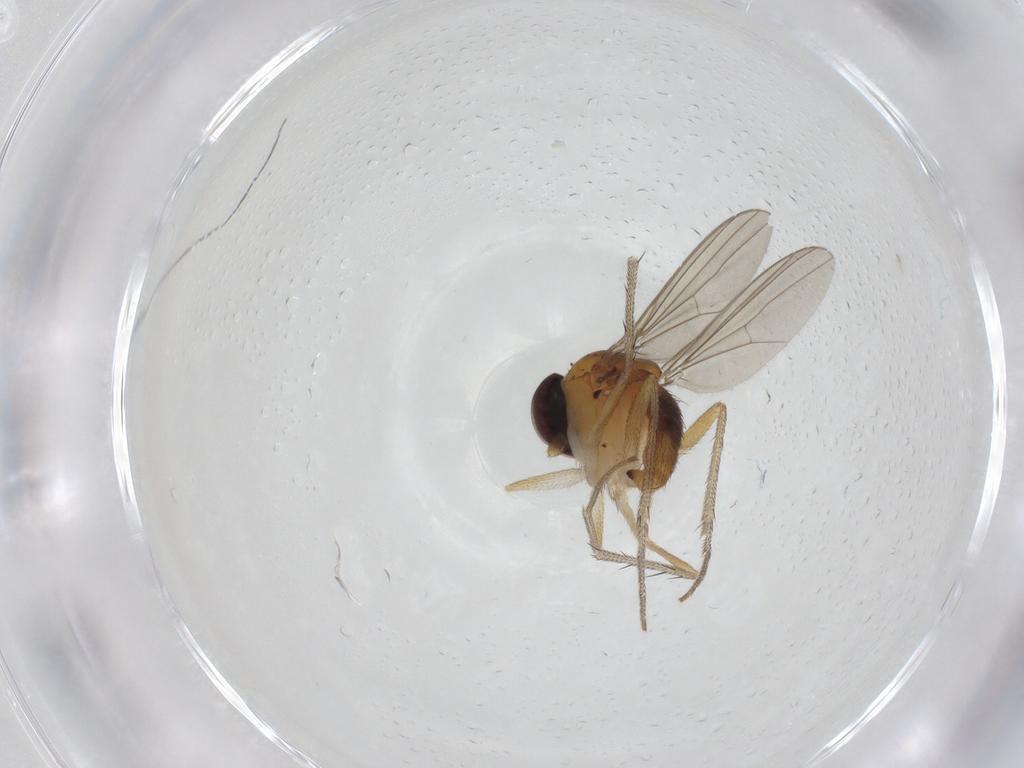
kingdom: Animalia
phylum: Arthropoda
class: Insecta
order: Diptera
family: Dolichopodidae
